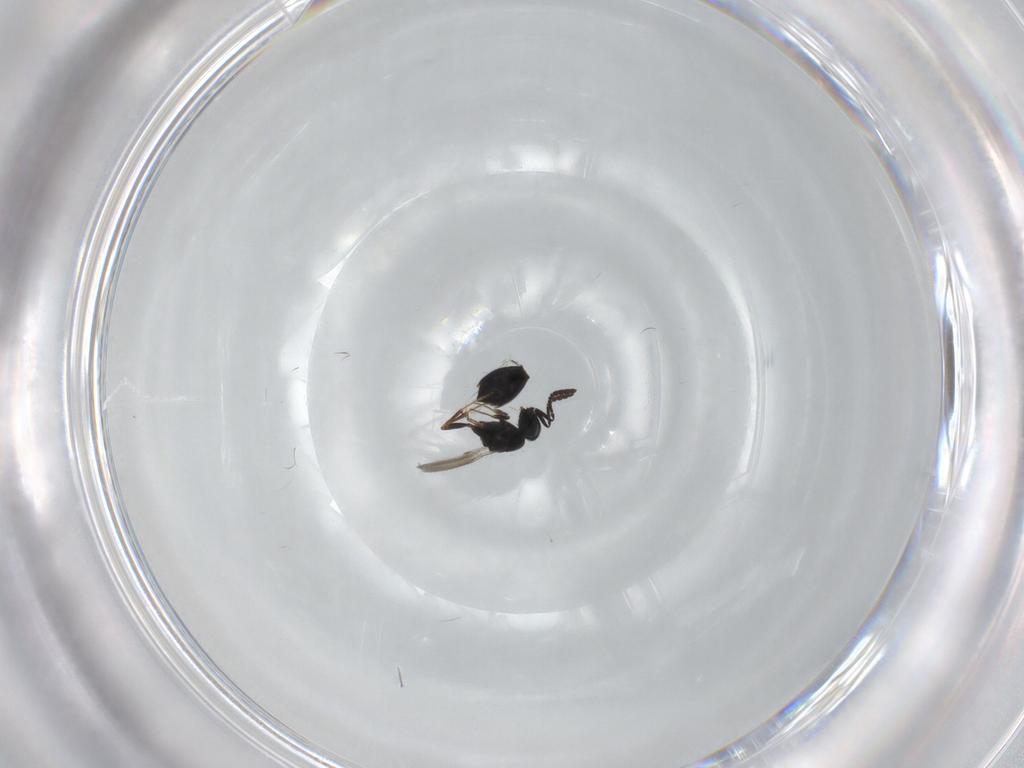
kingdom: Animalia
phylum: Arthropoda
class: Insecta
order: Hymenoptera
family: Scelionidae
